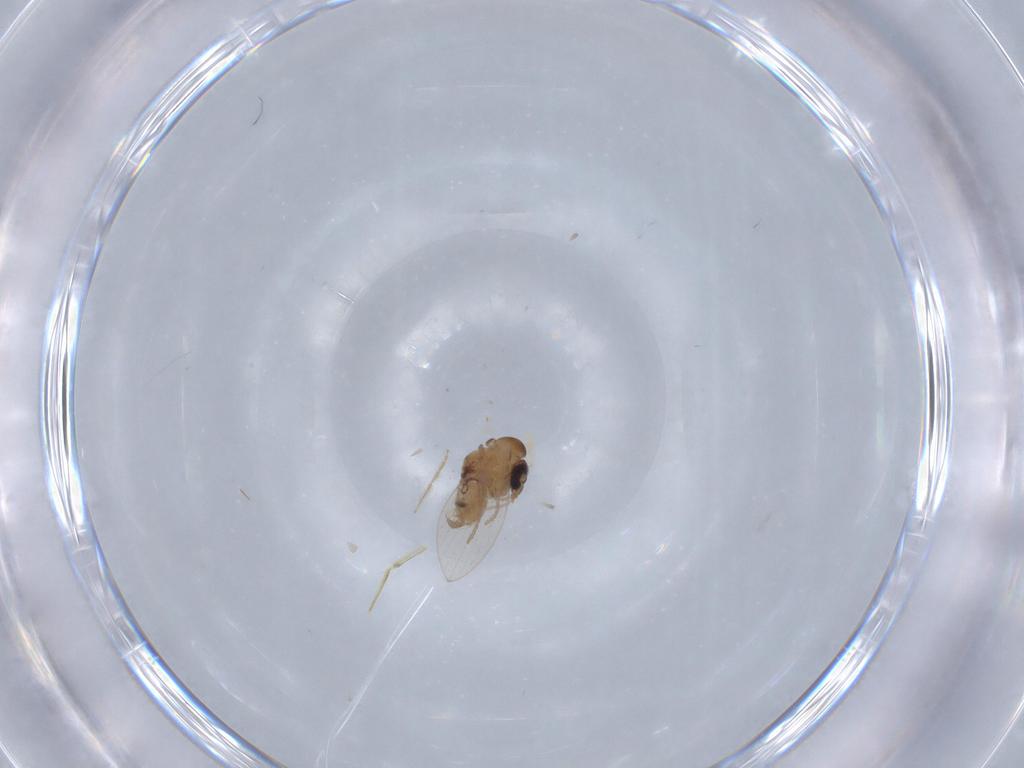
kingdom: Animalia
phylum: Arthropoda
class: Insecta
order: Diptera
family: Psychodidae
